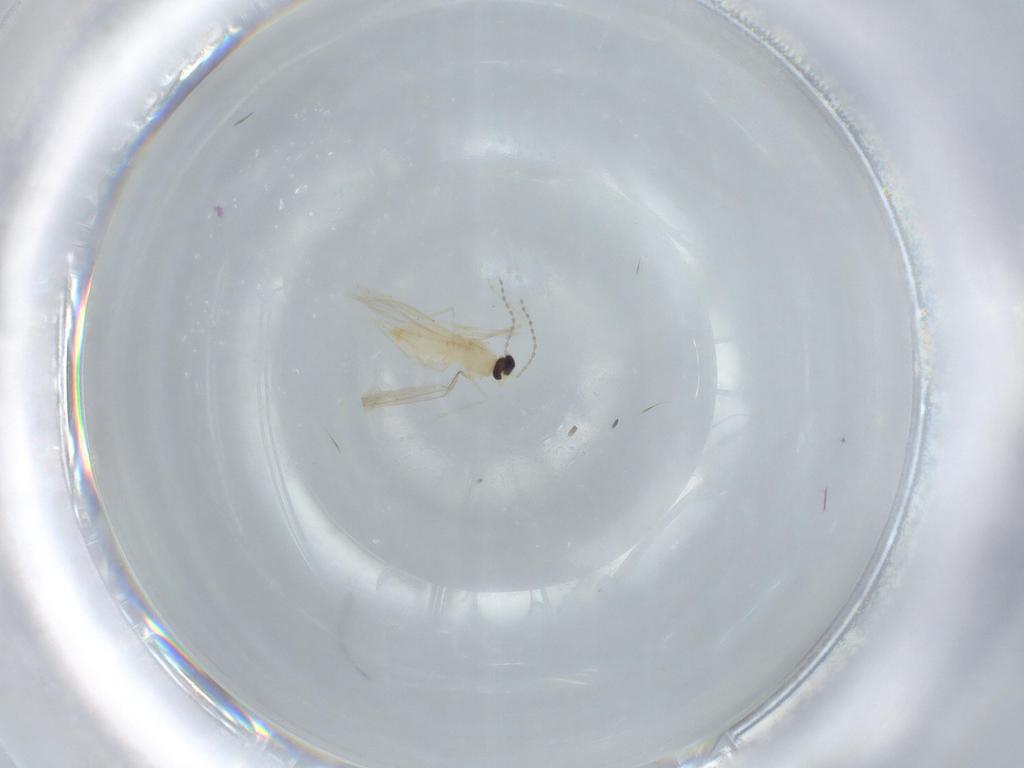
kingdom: Animalia
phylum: Arthropoda
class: Insecta
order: Diptera
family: Cecidomyiidae
